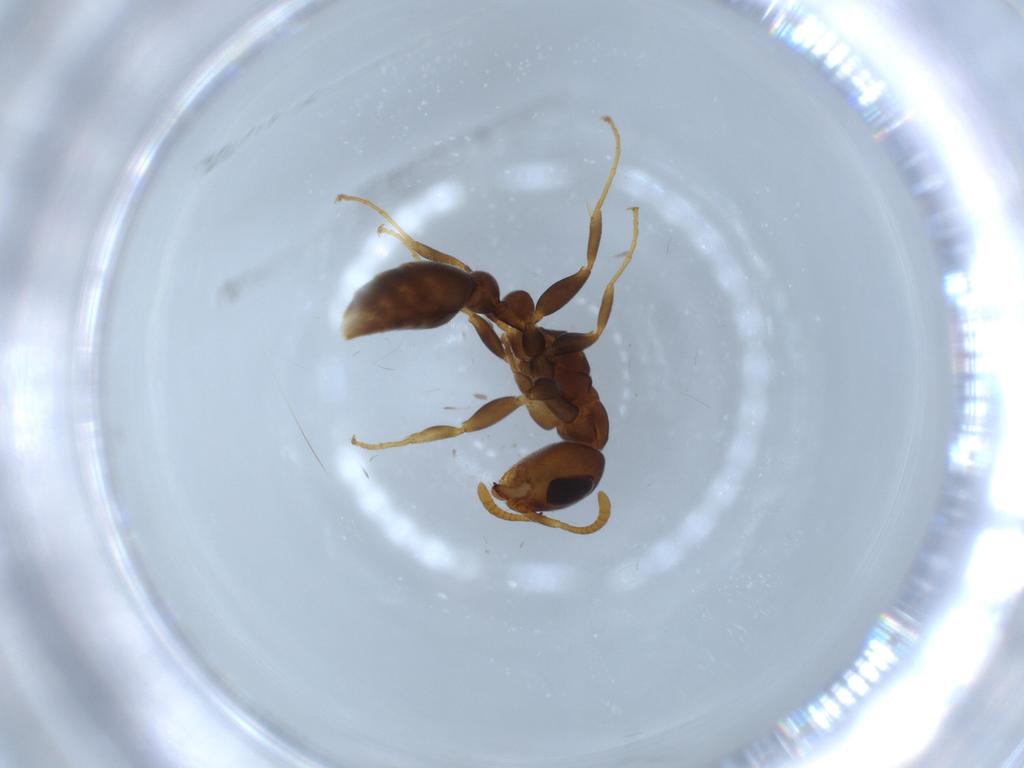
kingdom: Animalia
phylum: Arthropoda
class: Insecta
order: Hymenoptera
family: Formicidae
